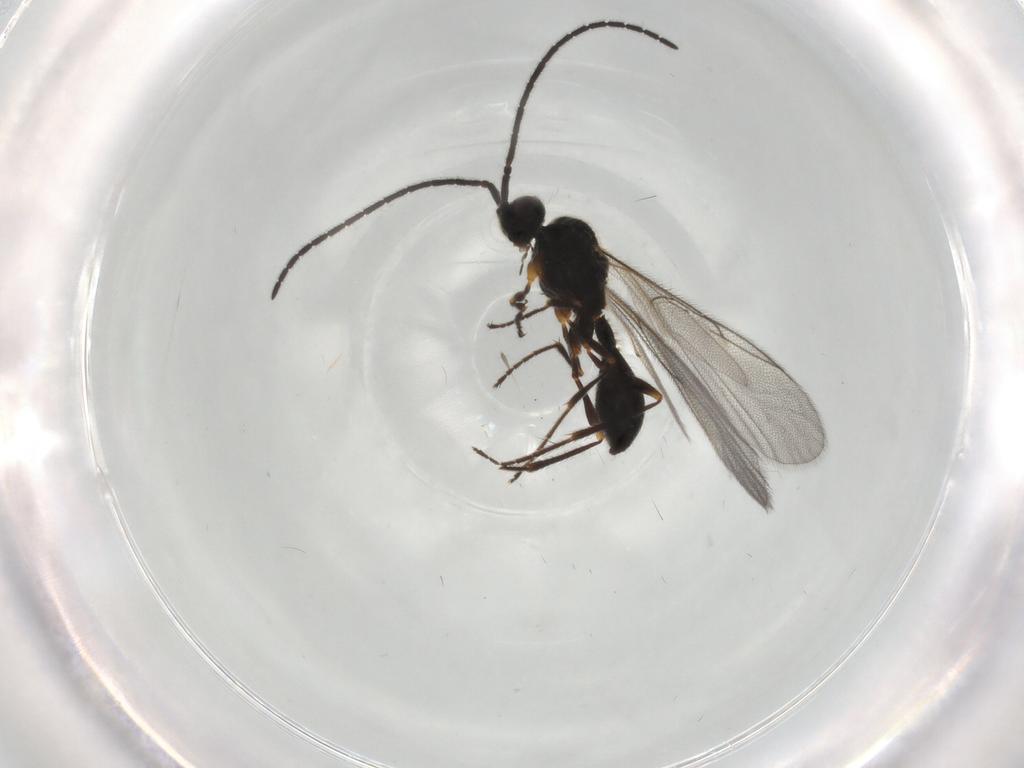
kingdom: Animalia
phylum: Arthropoda
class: Insecta
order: Hymenoptera
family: Diapriidae
